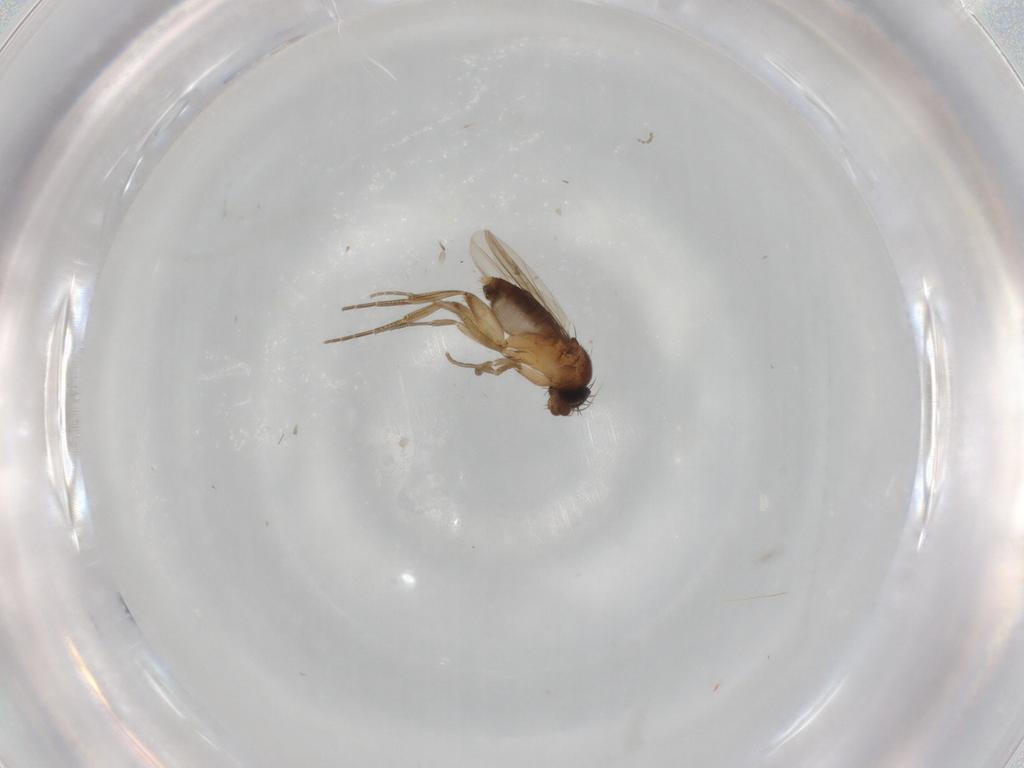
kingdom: Animalia
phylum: Arthropoda
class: Insecta
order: Diptera
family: Phoridae
